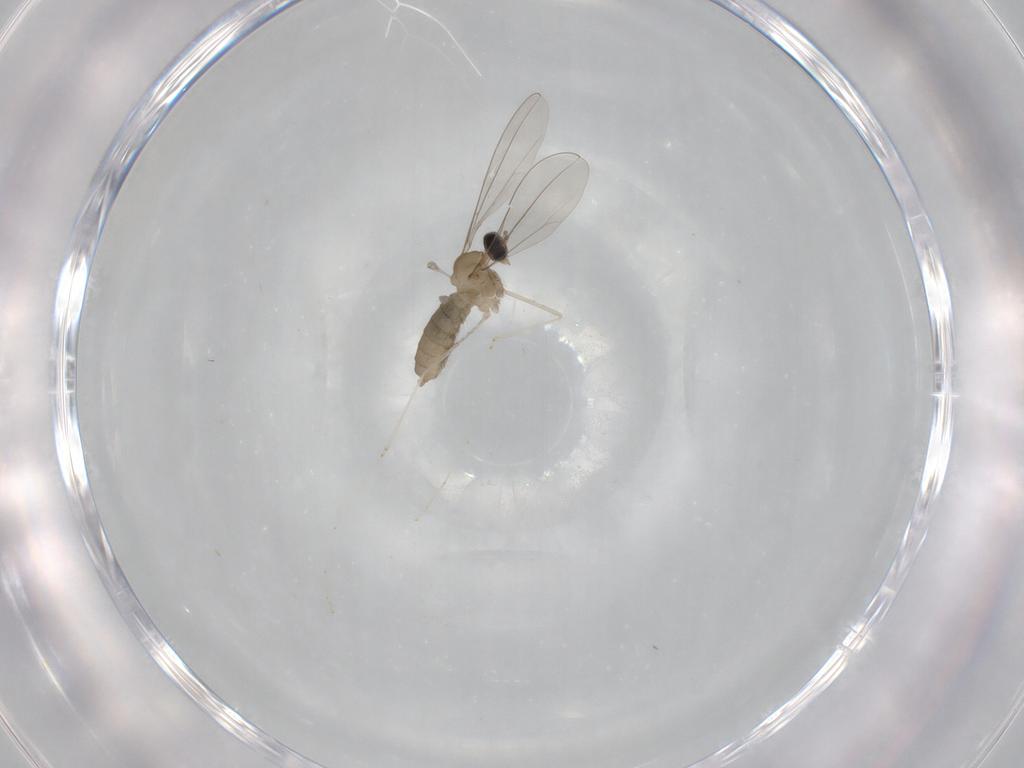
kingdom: Animalia
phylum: Arthropoda
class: Insecta
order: Diptera
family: Cecidomyiidae
